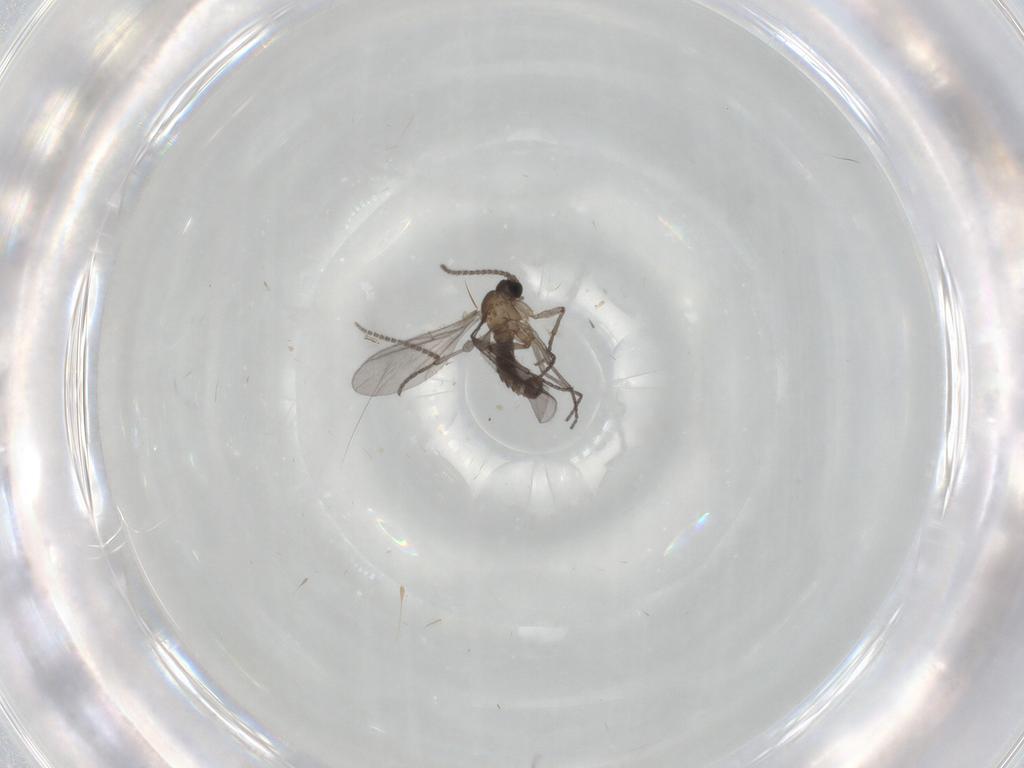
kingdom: Animalia
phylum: Arthropoda
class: Insecta
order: Diptera
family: Sciaridae
